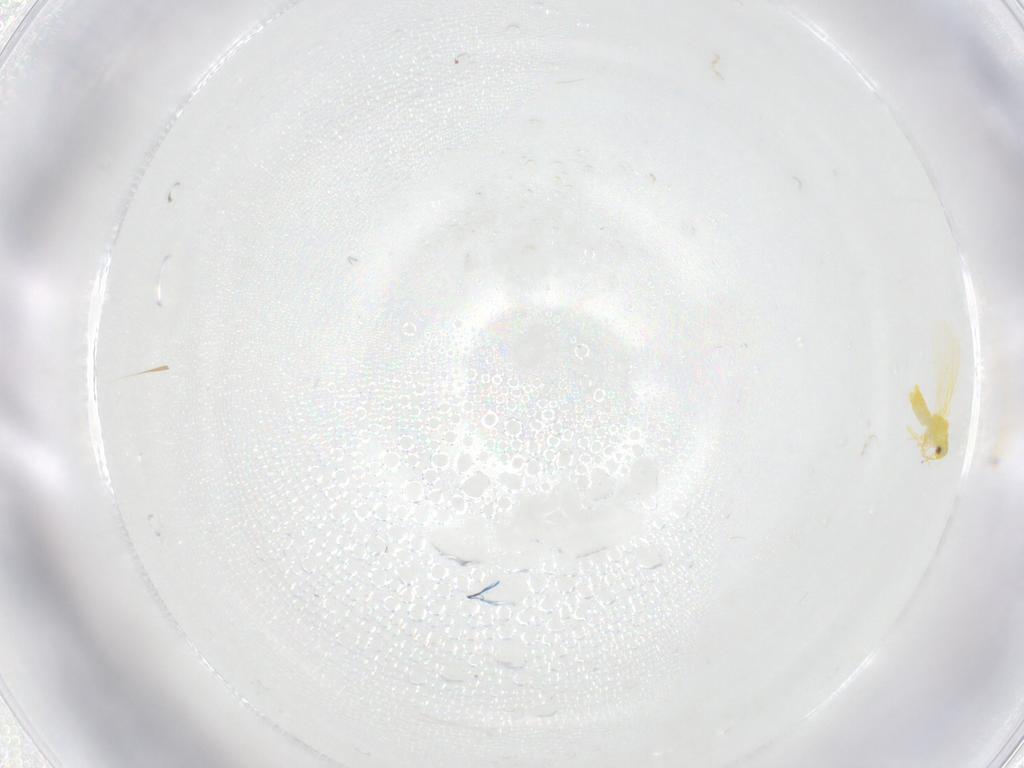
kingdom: Animalia
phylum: Arthropoda
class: Insecta
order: Hemiptera
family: Aleyrodidae
